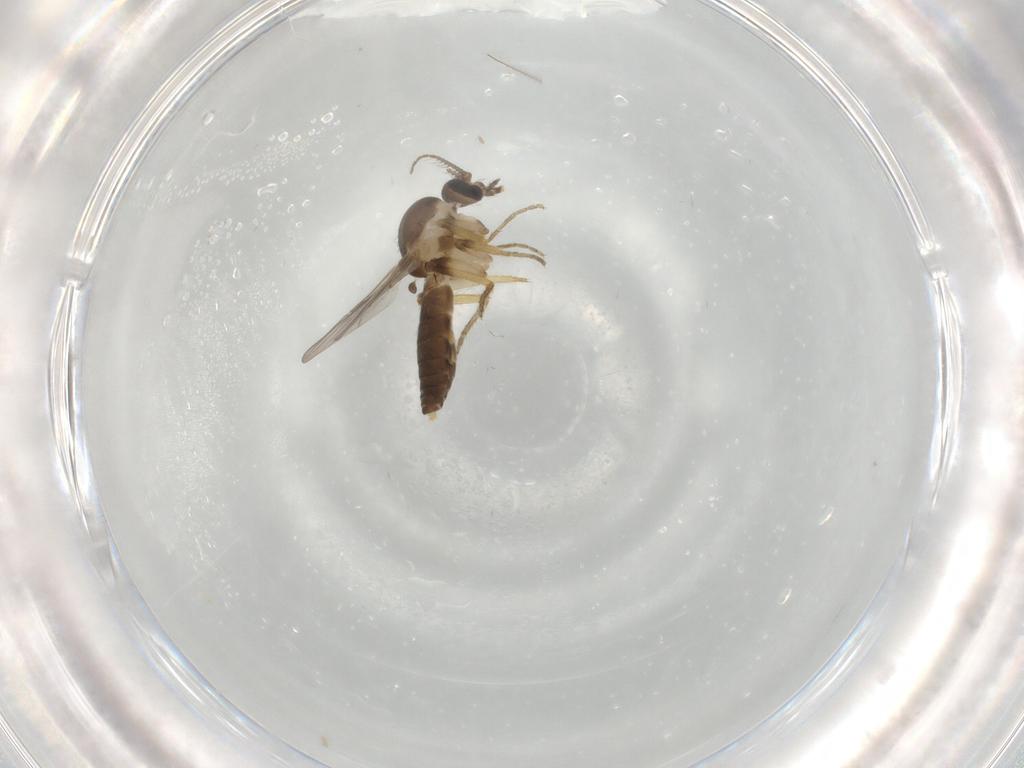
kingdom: Animalia
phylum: Arthropoda
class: Insecta
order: Diptera
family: Ceratopogonidae
